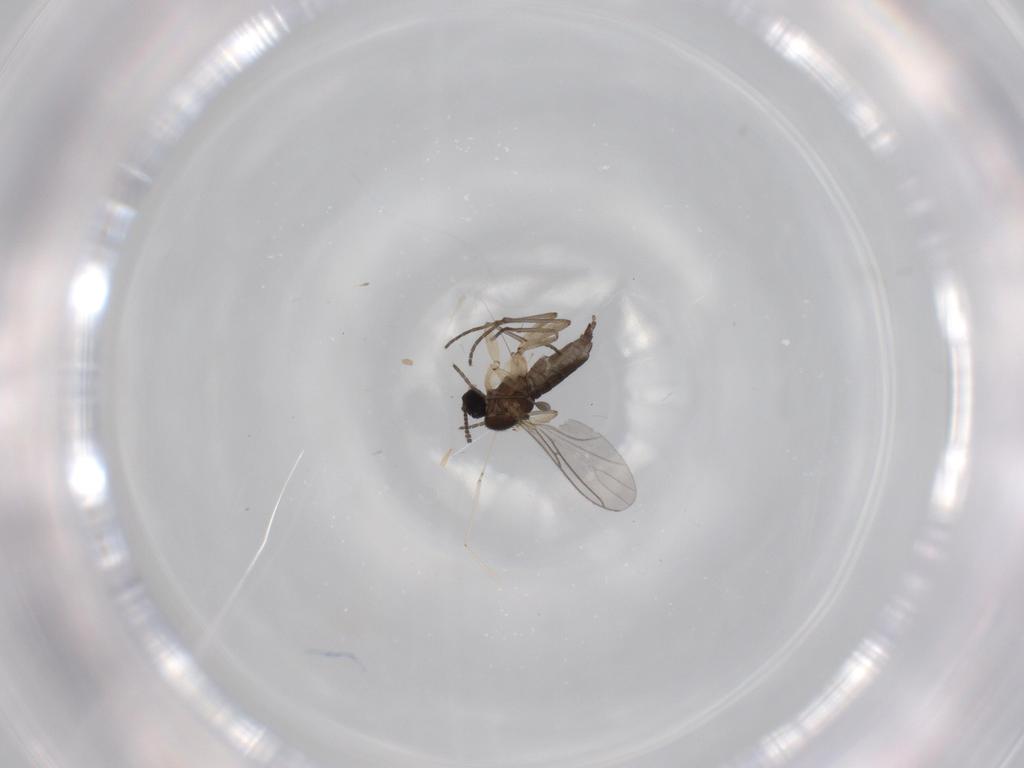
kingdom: Animalia
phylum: Arthropoda
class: Insecta
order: Diptera
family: Sciaridae
